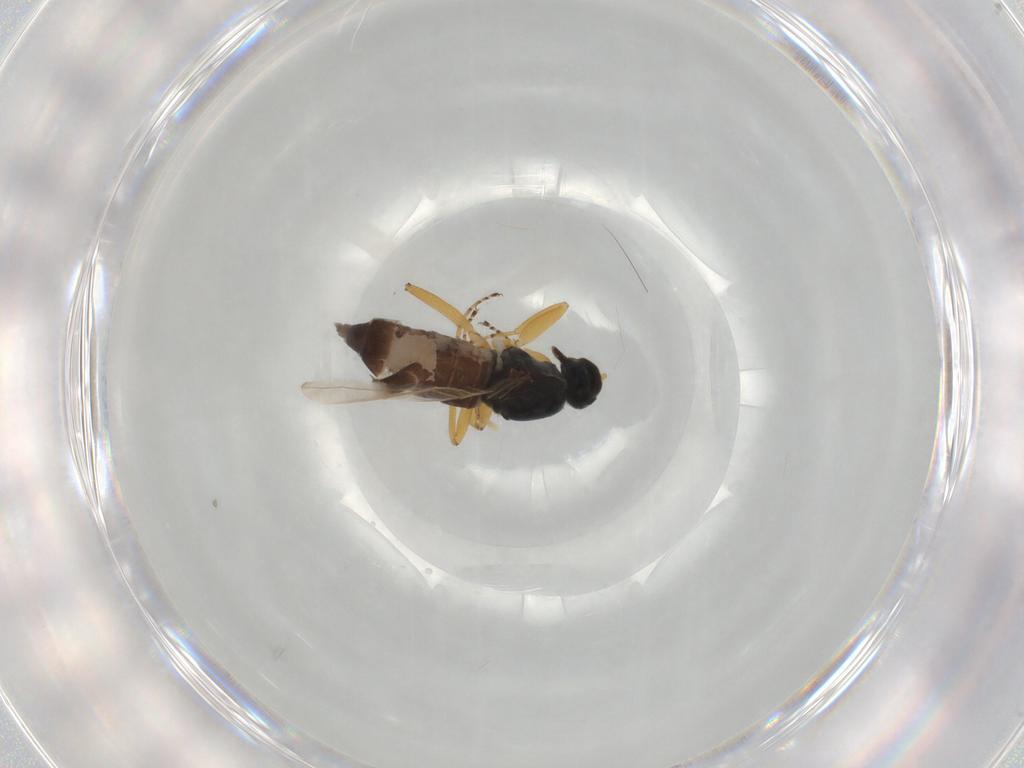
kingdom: Animalia
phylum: Arthropoda
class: Insecta
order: Diptera
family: Hybotidae
